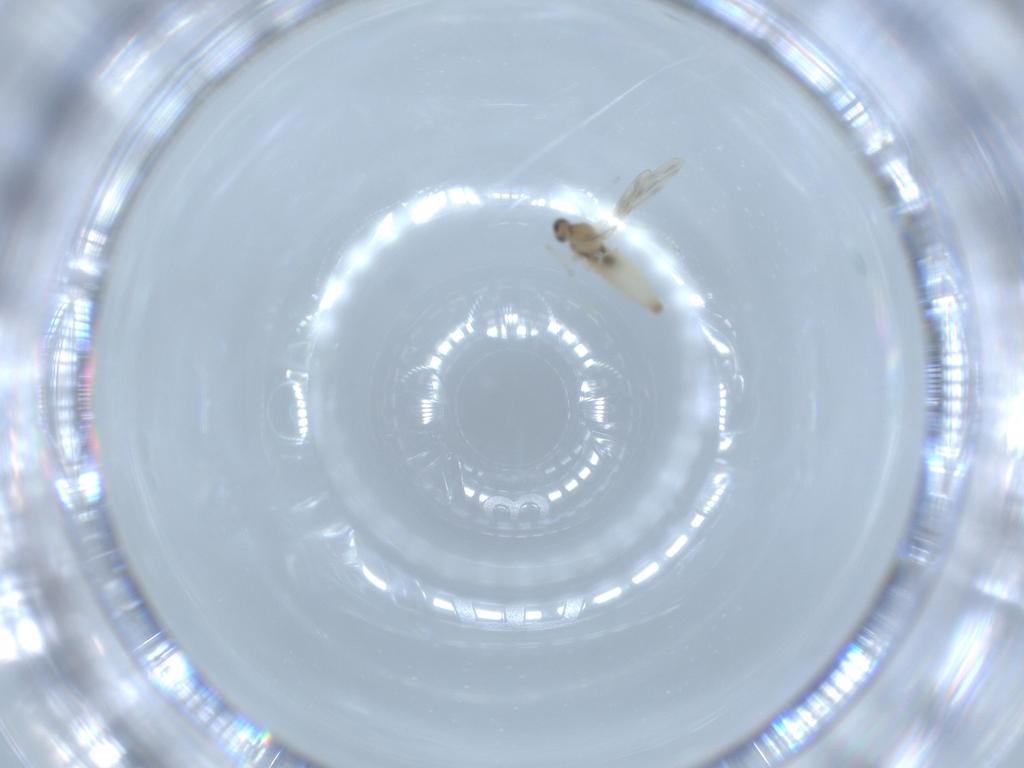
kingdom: Animalia
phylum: Arthropoda
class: Insecta
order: Diptera
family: Cecidomyiidae
